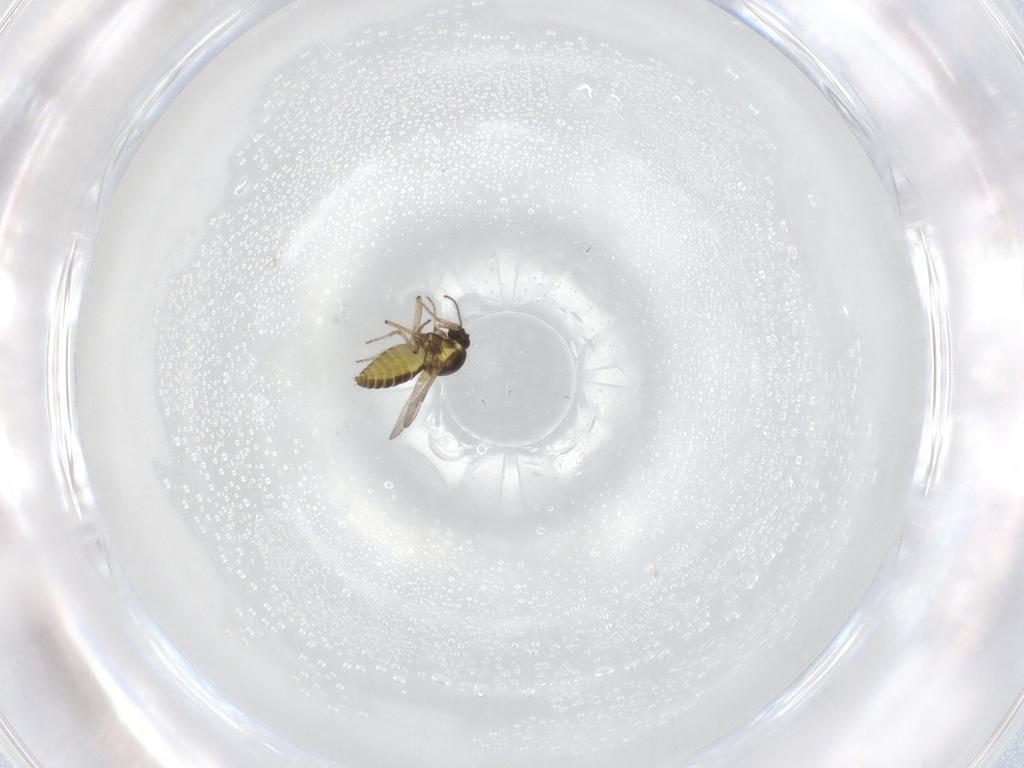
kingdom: Animalia
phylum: Arthropoda
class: Insecta
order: Diptera
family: Ceratopogonidae
